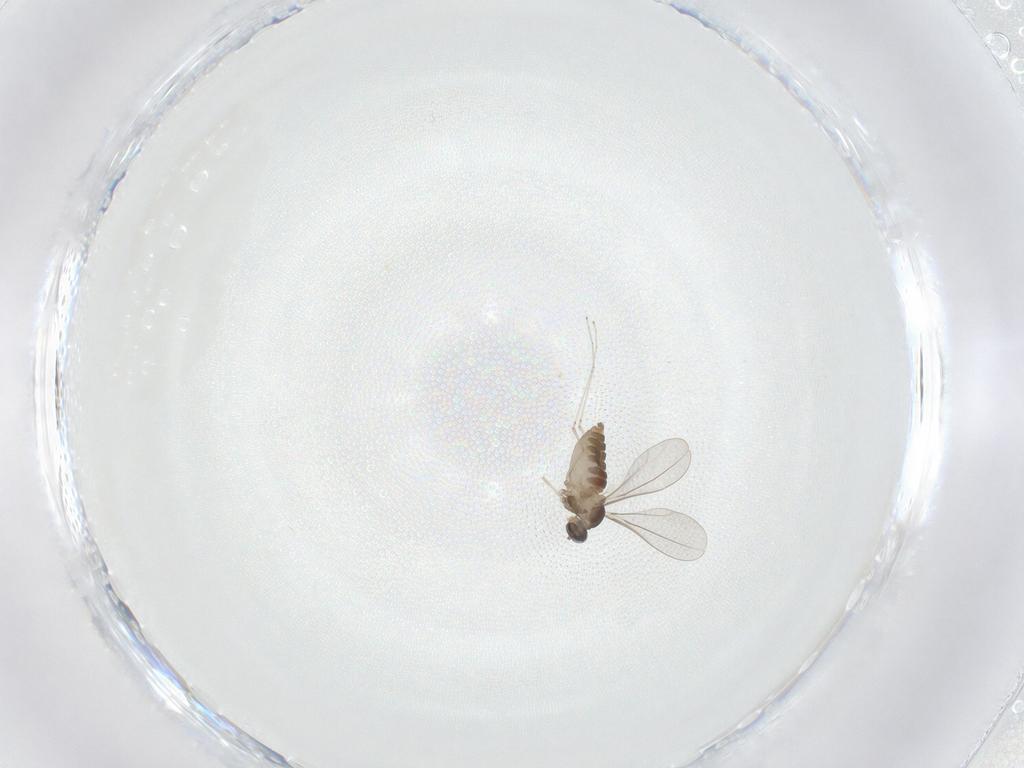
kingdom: Animalia
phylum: Arthropoda
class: Insecta
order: Diptera
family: Cecidomyiidae
